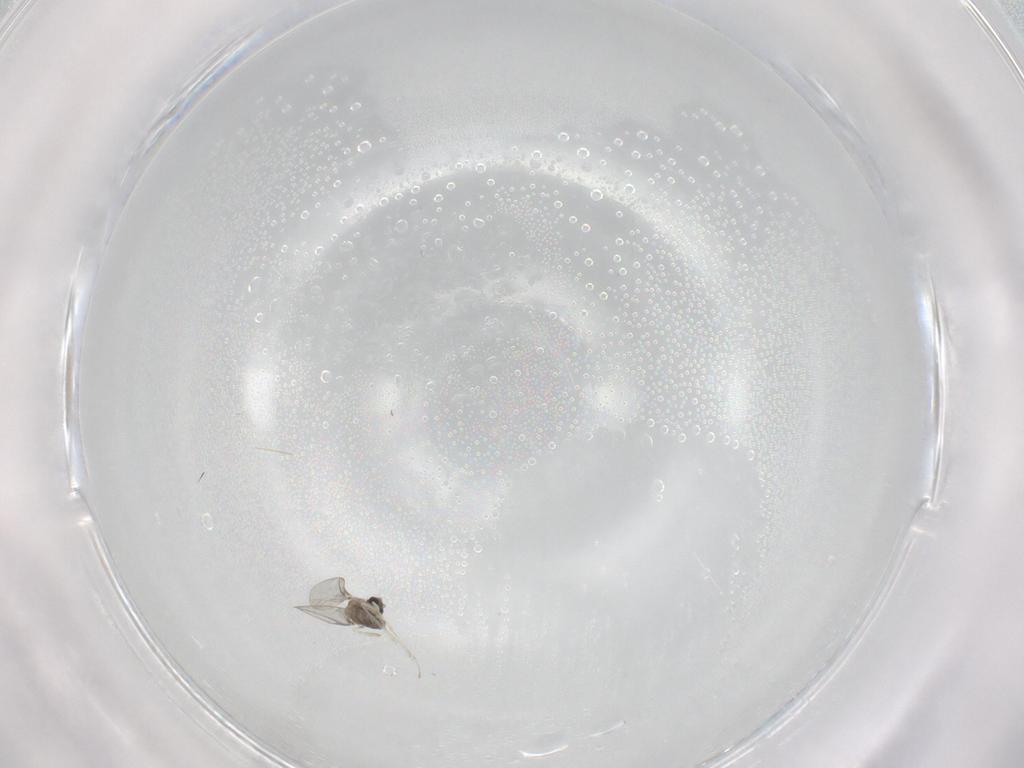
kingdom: Animalia
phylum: Arthropoda
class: Insecta
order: Diptera
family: Cecidomyiidae
